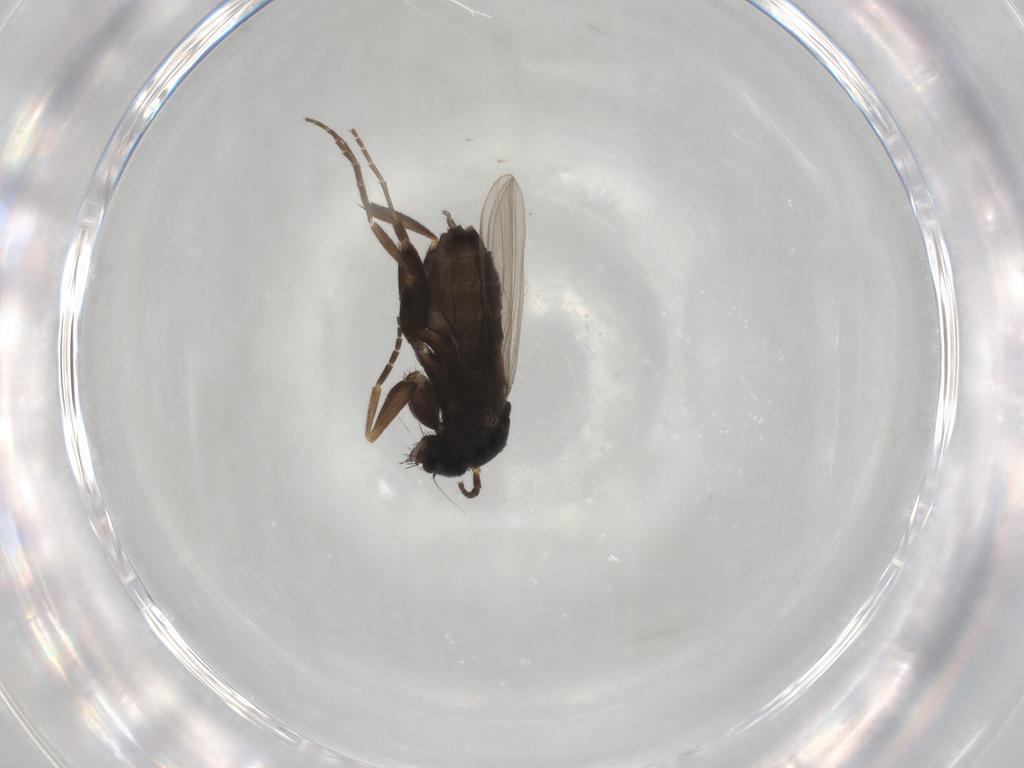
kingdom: Animalia
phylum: Arthropoda
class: Insecta
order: Diptera
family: Phoridae
